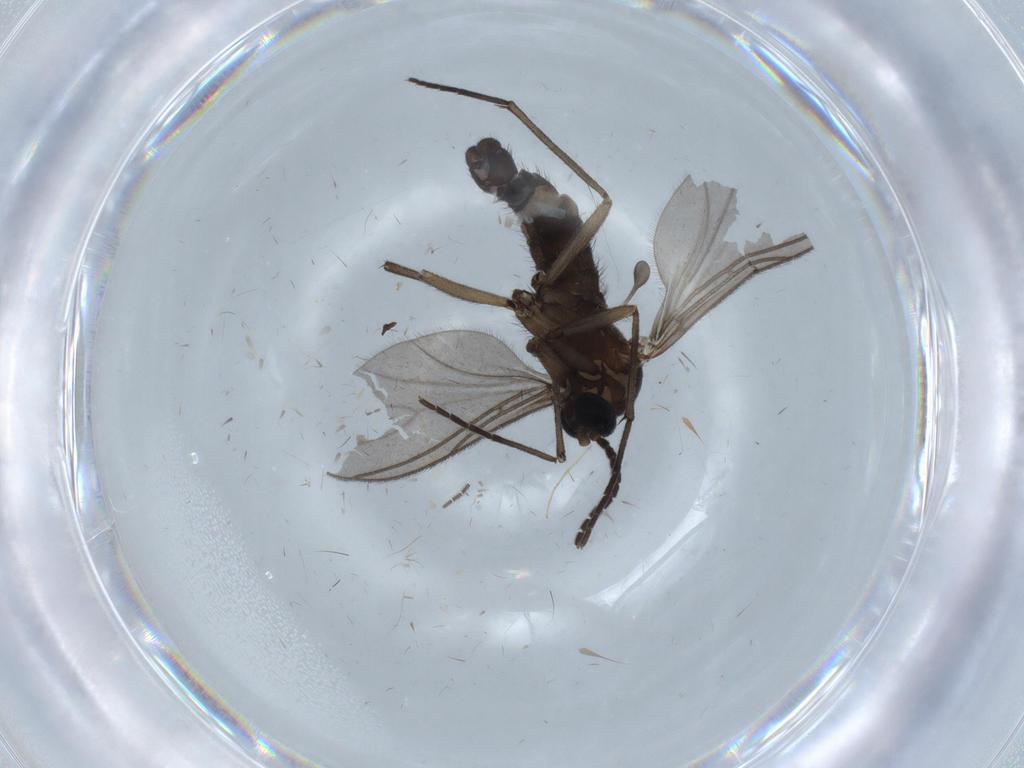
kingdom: Animalia
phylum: Arthropoda
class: Insecta
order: Diptera
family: Sciaridae
